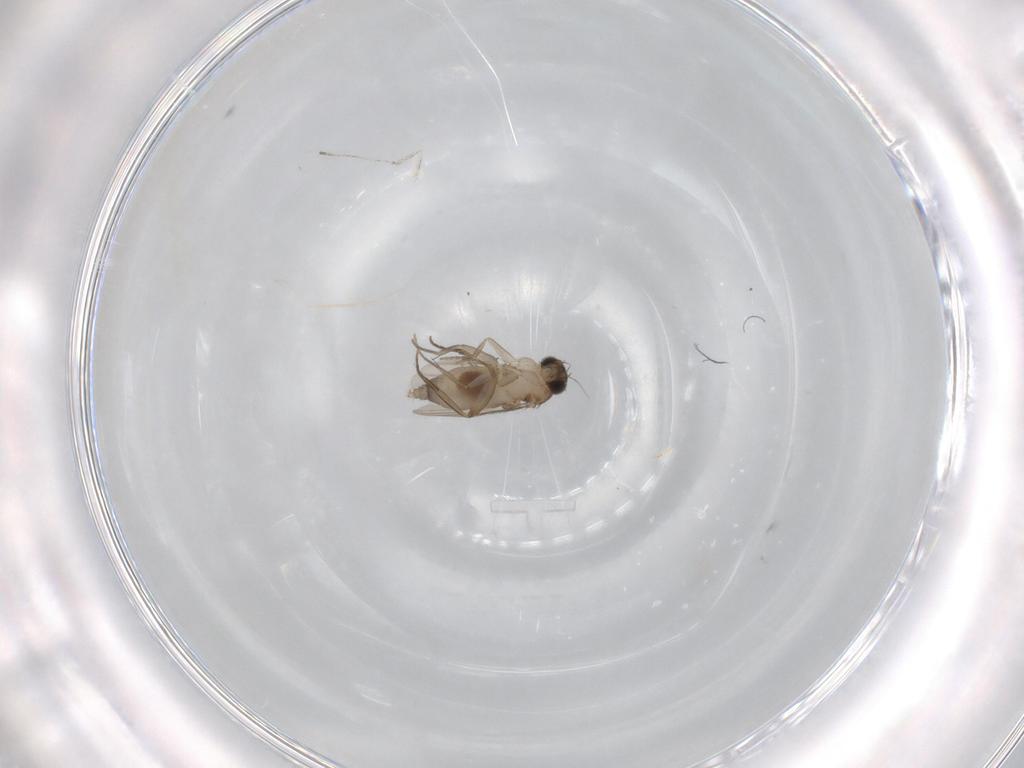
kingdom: Animalia
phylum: Arthropoda
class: Insecta
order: Diptera
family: Phoridae
